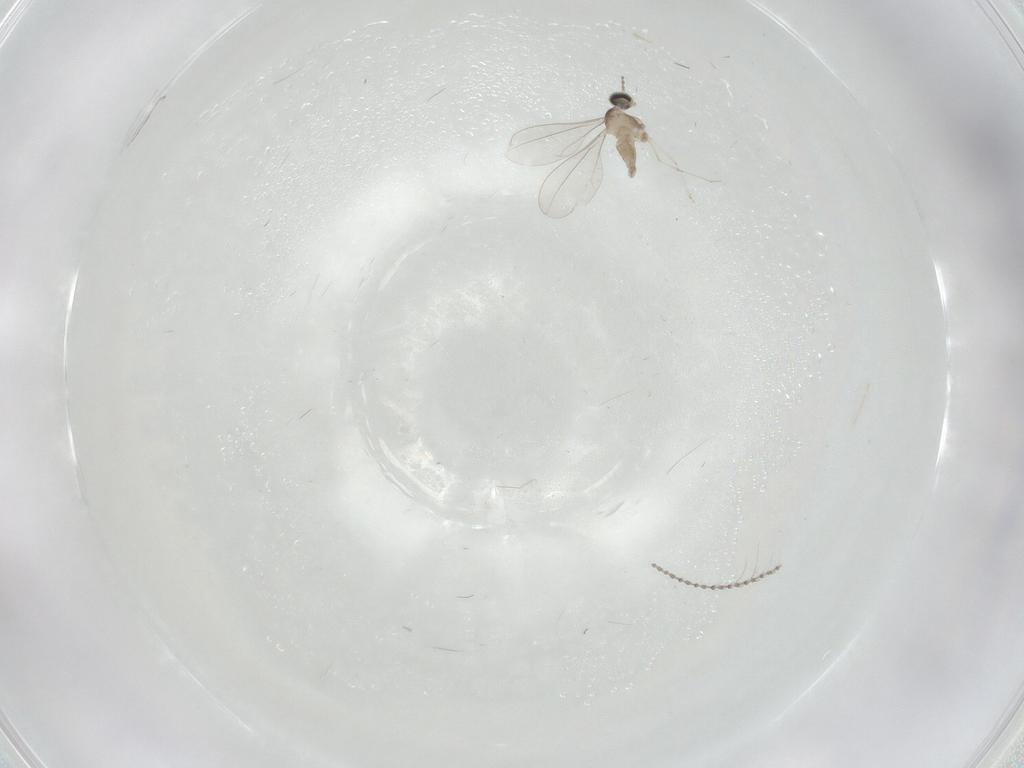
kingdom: Animalia
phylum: Arthropoda
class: Insecta
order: Diptera
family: Cecidomyiidae
